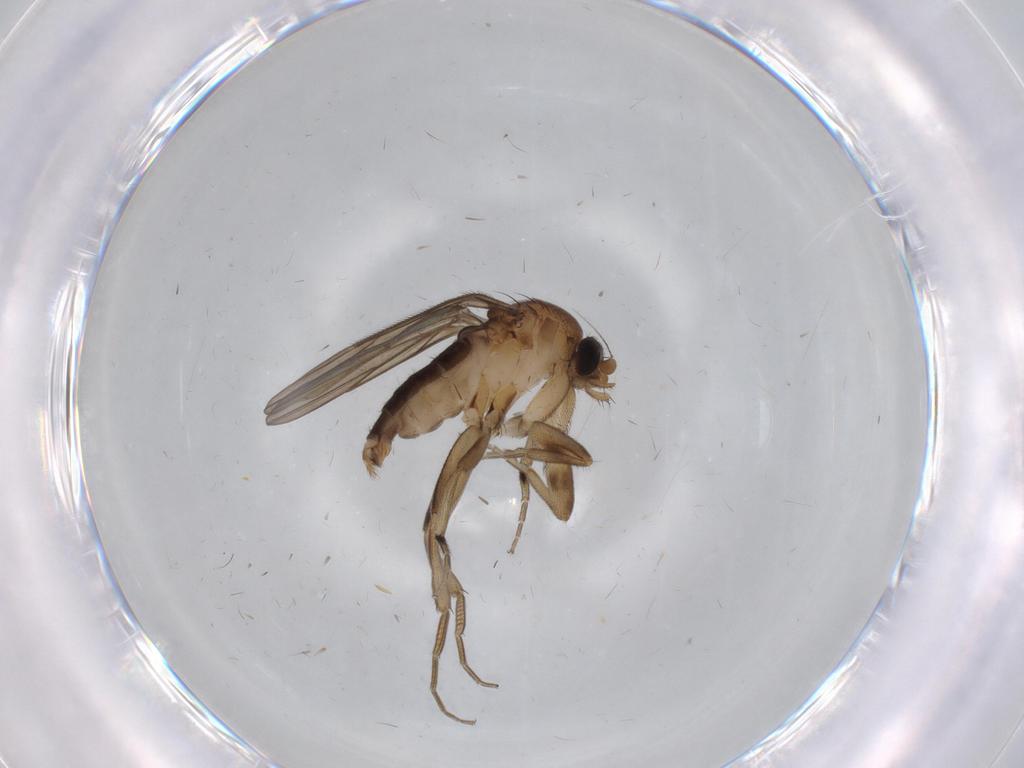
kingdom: Animalia
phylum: Arthropoda
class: Insecta
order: Diptera
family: Phoridae
